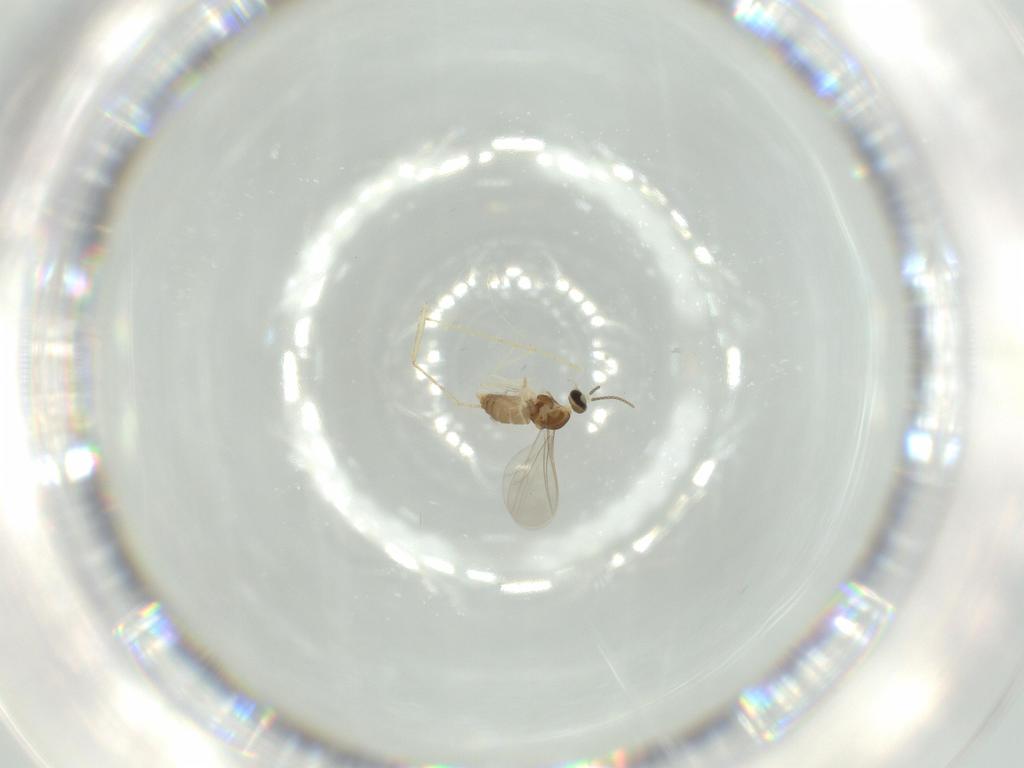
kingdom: Animalia
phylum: Arthropoda
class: Insecta
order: Diptera
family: Cecidomyiidae
